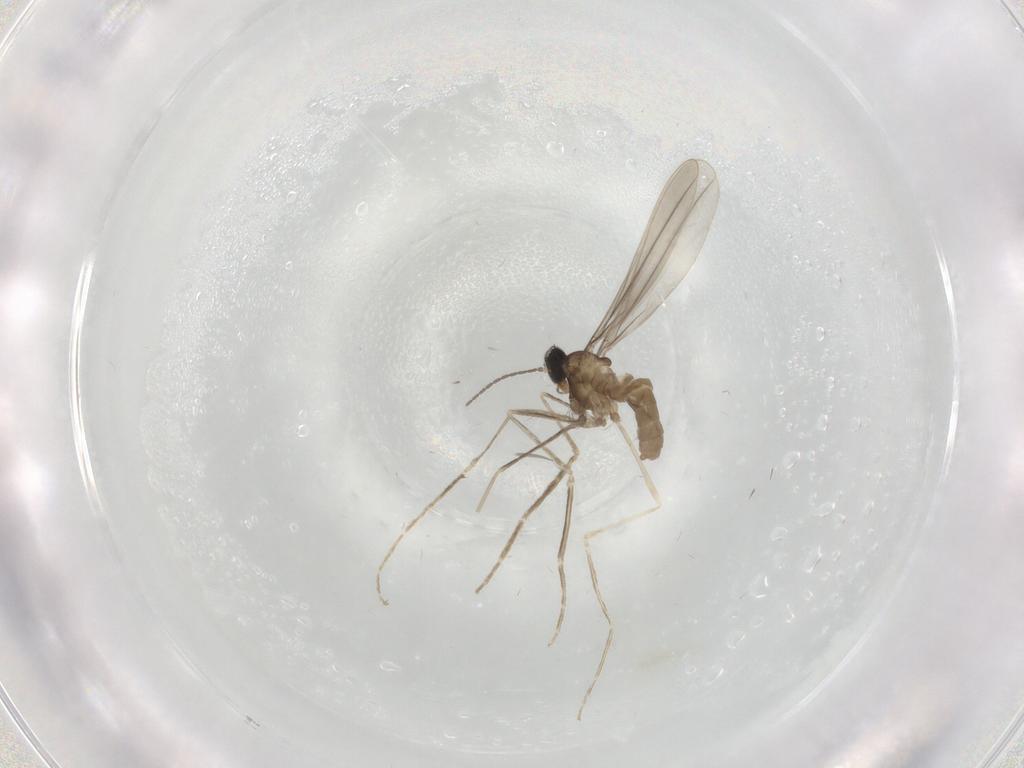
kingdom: Animalia
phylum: Arthropoda
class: Insecta
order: Diptera
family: Cecidomyiidae
